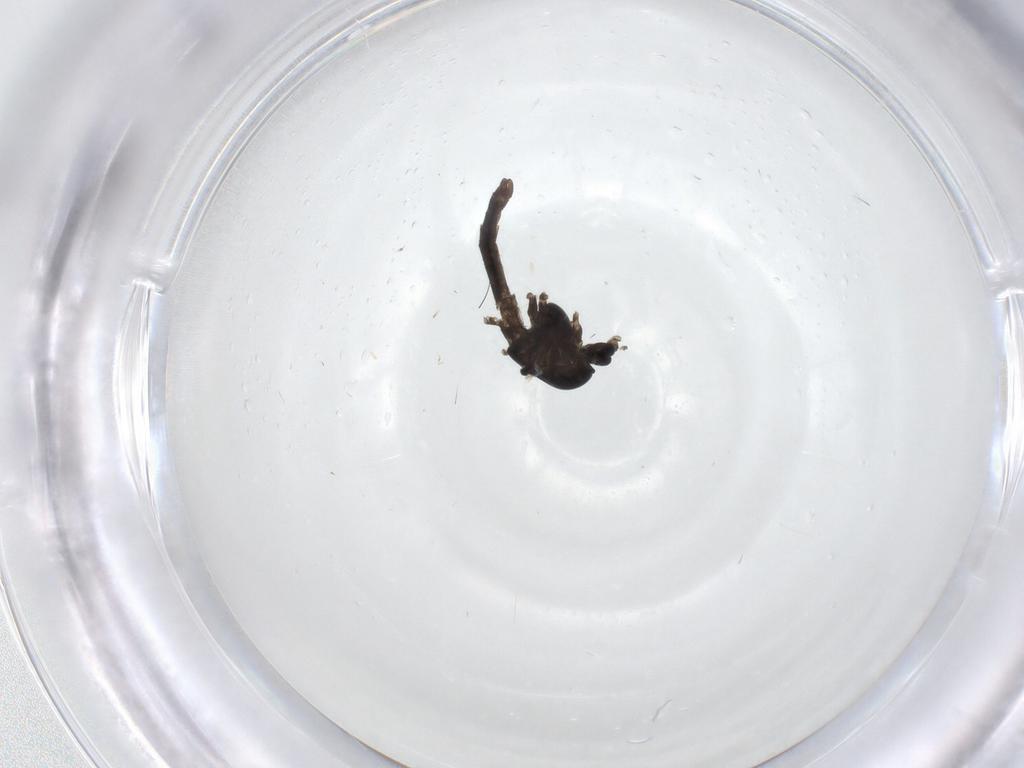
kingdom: Animalia
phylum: Arthropoda
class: Insecta
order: Diptera
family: Chironomidae
